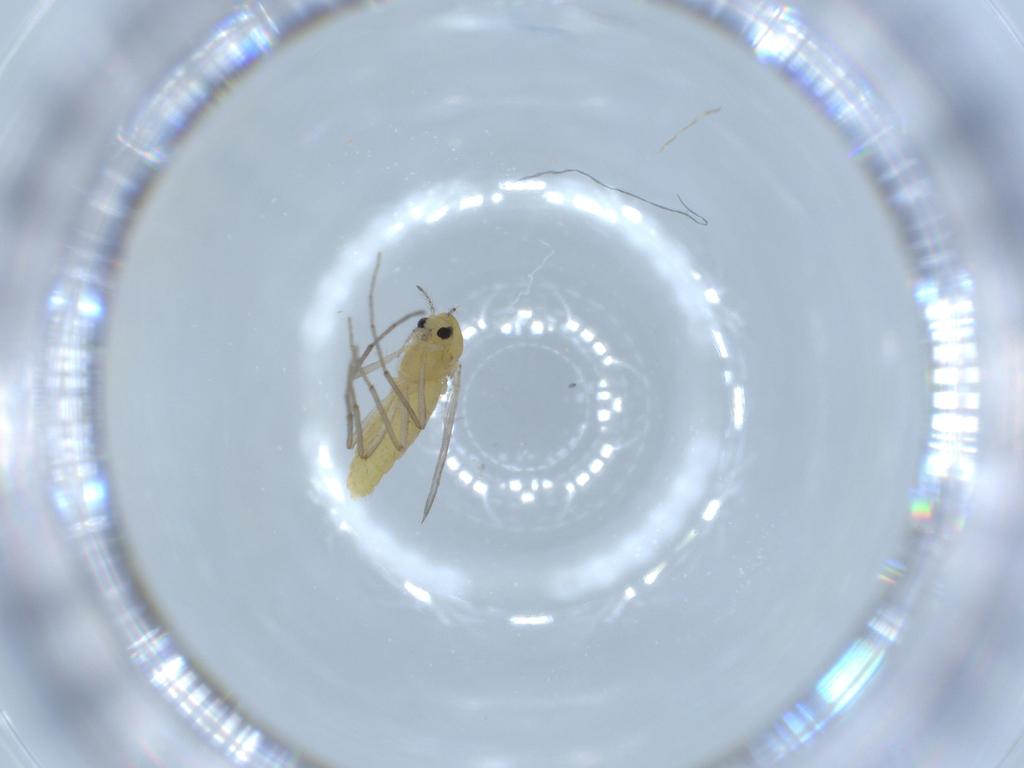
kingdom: Animalia
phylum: Arthropoda
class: Insecta
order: Diptera
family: Chironomidae
